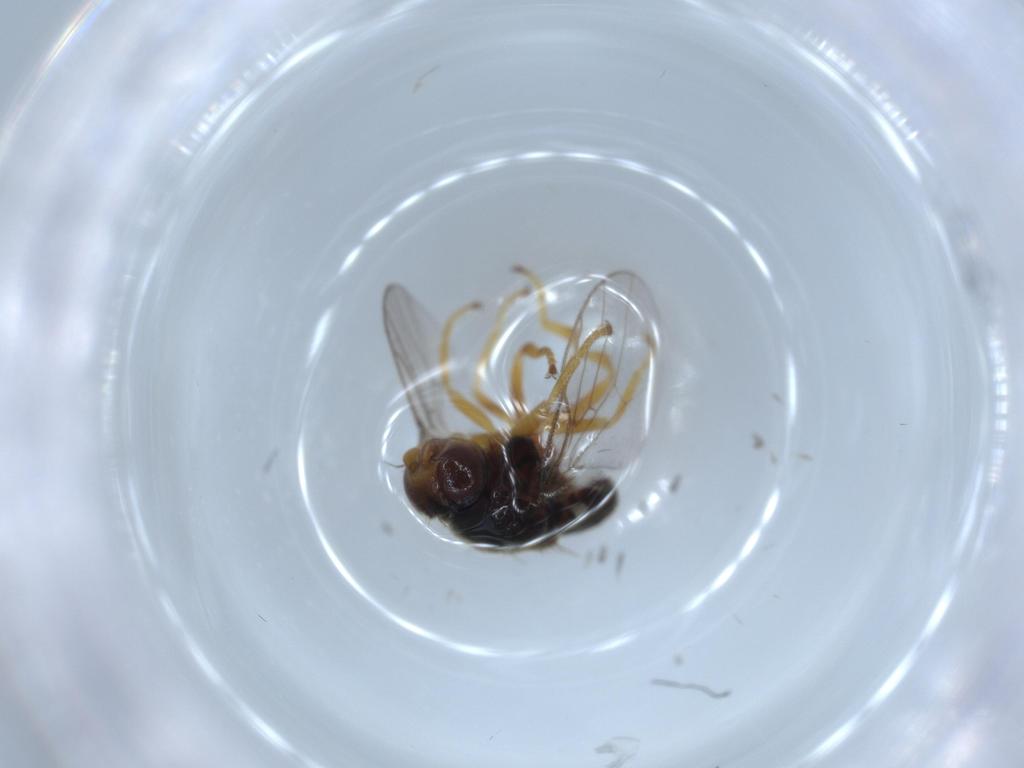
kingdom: Animalia
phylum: Arthropoda
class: Insecta
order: Diptera
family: Chloropidae
